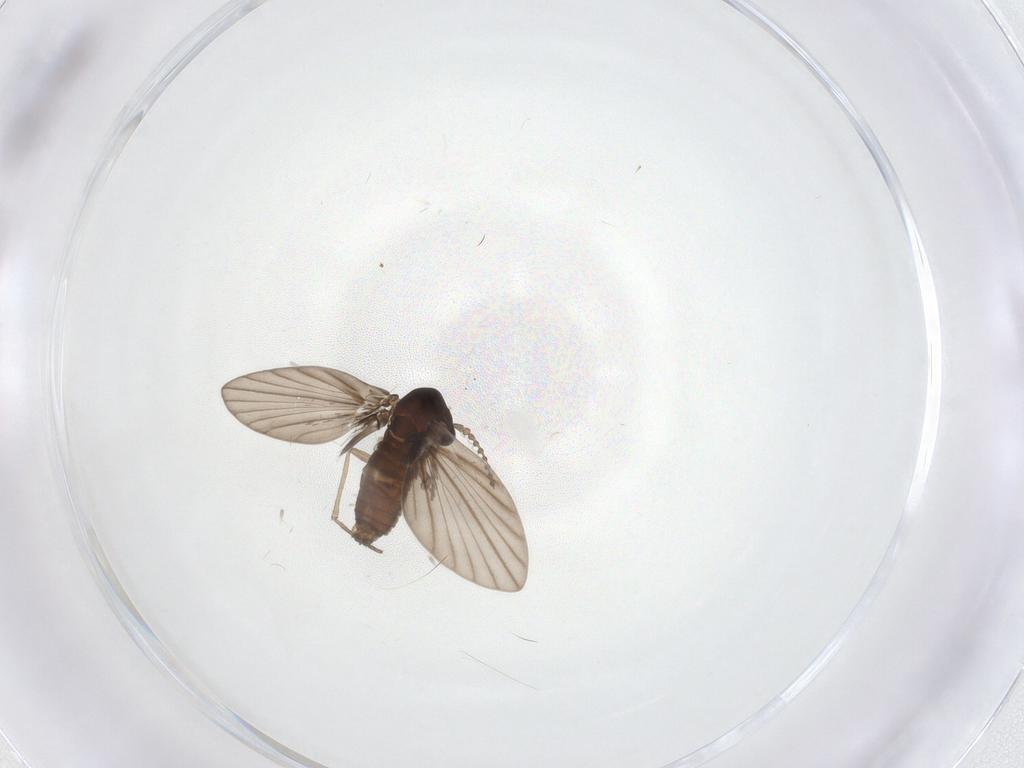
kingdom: Animalia
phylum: Arthropoda
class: Insecta
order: Diptera
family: Psychodidae
